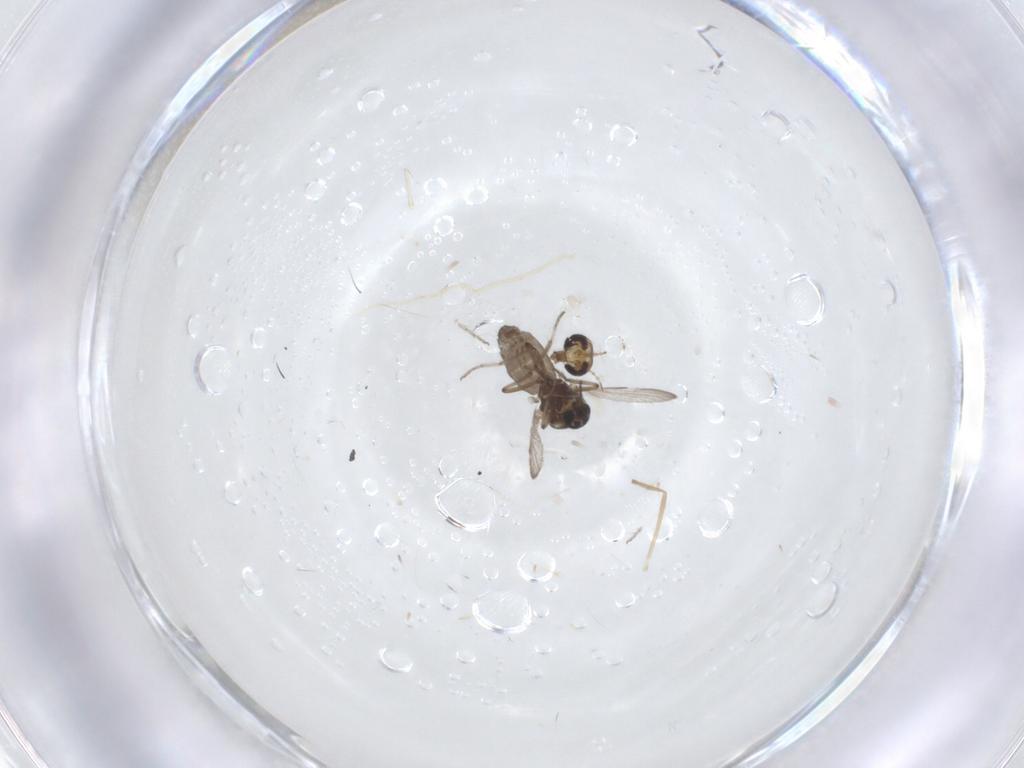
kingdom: Animalia
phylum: Arthropoda
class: Insecta
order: Diptera
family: Ceratopogonidae
